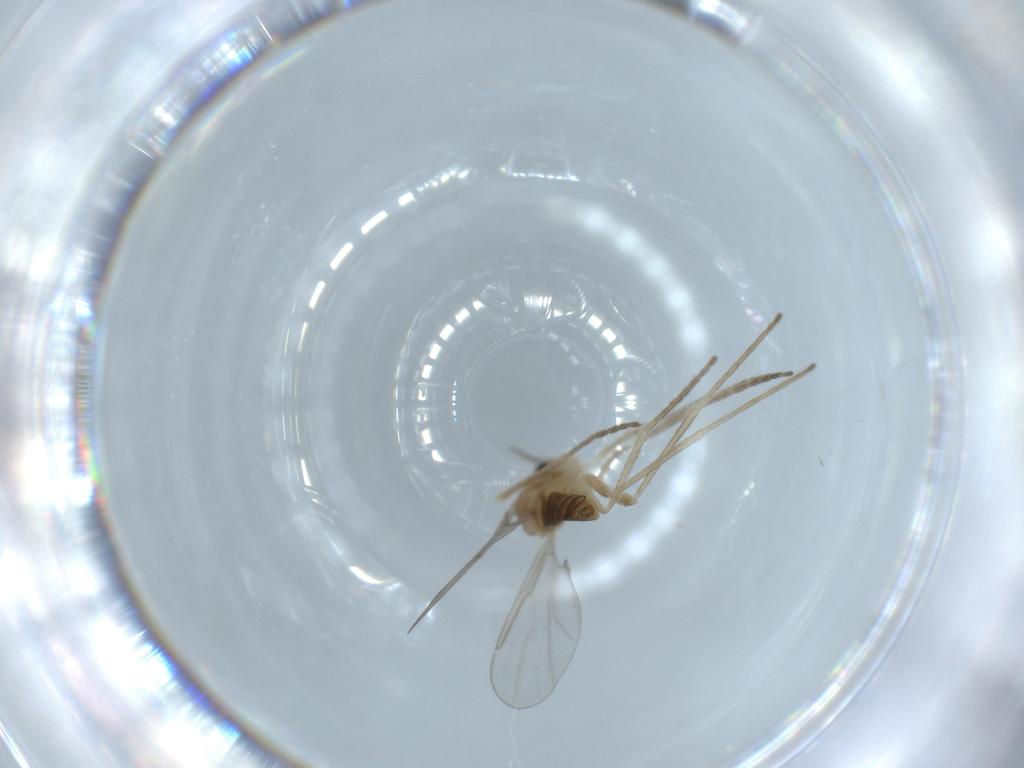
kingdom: Animalia
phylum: Arthropoda
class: Insecta
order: Diptera
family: Cecidomyiidae
